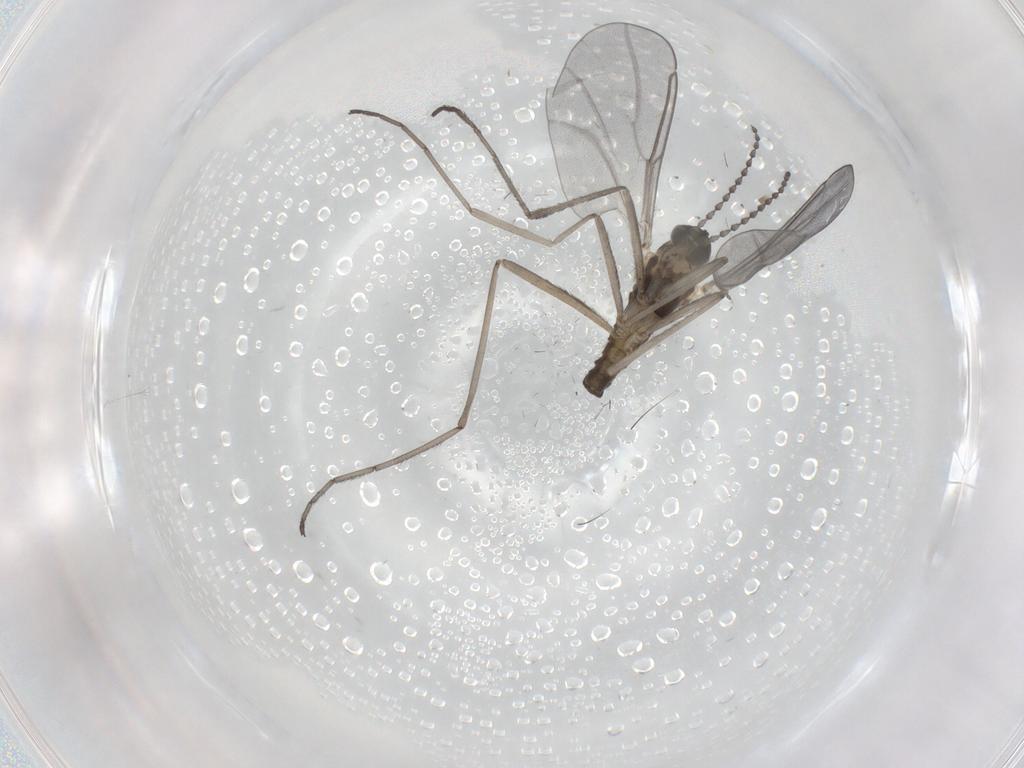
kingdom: Animalia
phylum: Arthropoda
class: Insecta
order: Diptera
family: Cecidomyiidae
